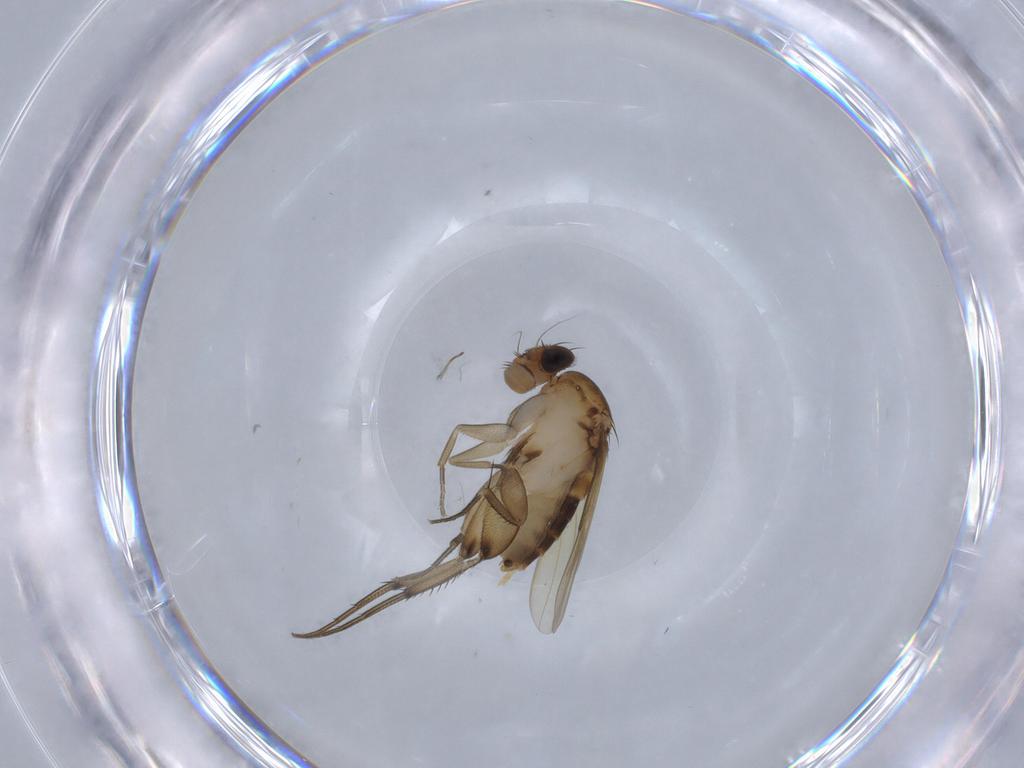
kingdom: Animalia
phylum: Arthropoda
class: Insecta
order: Diptera
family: Phoridae
